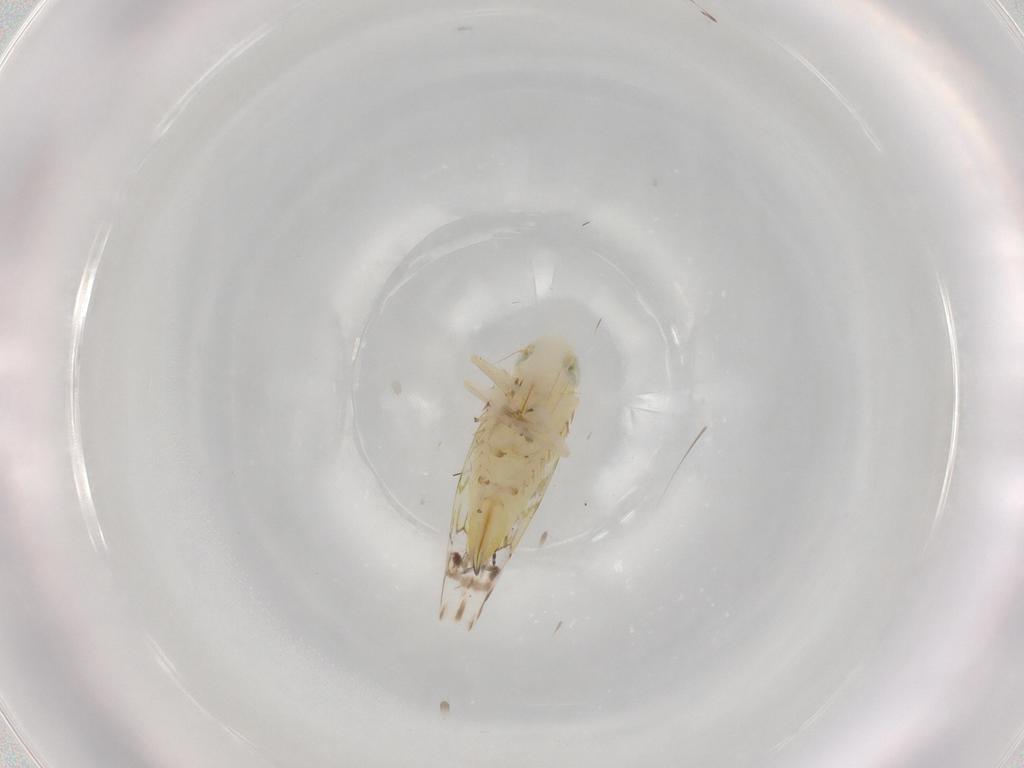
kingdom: Animalia
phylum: Arthropoda
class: Insecta
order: Hemiptera
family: Cicadellidae
